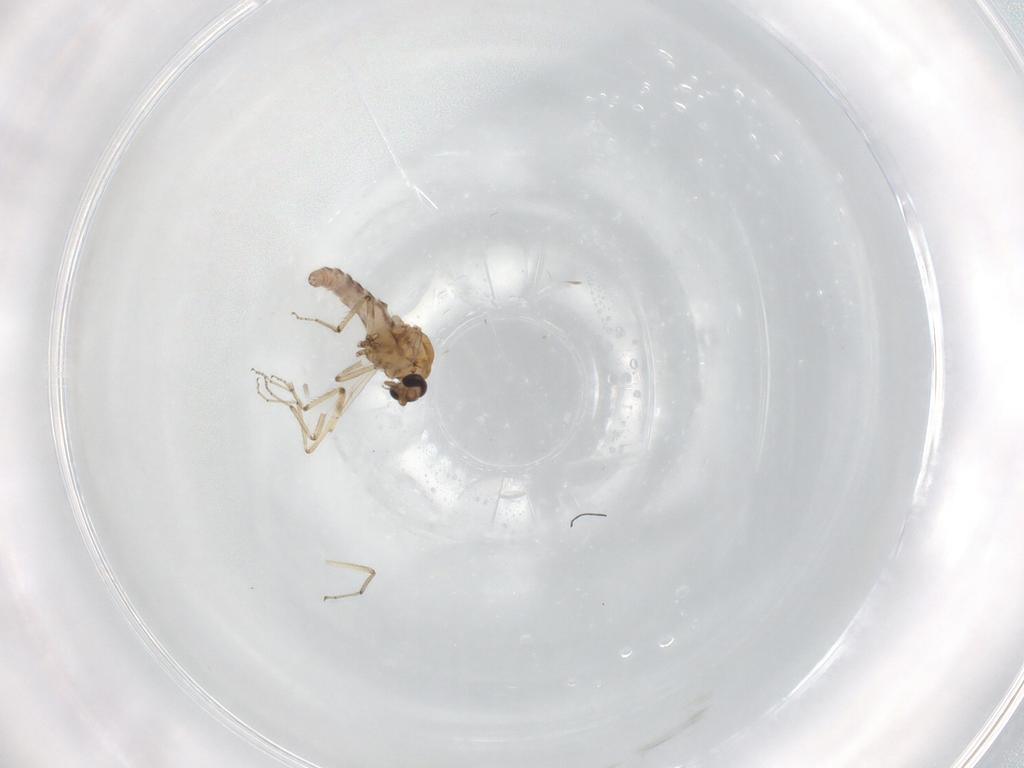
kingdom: Animalia
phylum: Arthropoda
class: Insecta
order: Diptera
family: Ceratopogonidae
